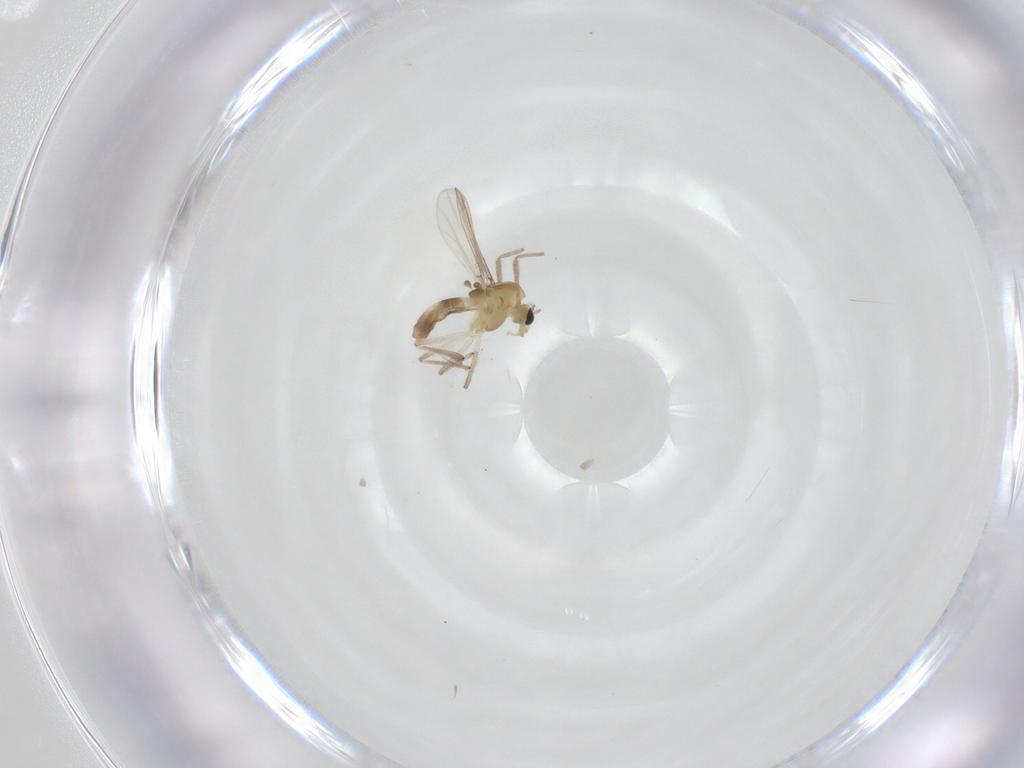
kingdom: Animalia
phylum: Arthropoda
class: Insecta
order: Diptera
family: Chironomidae
